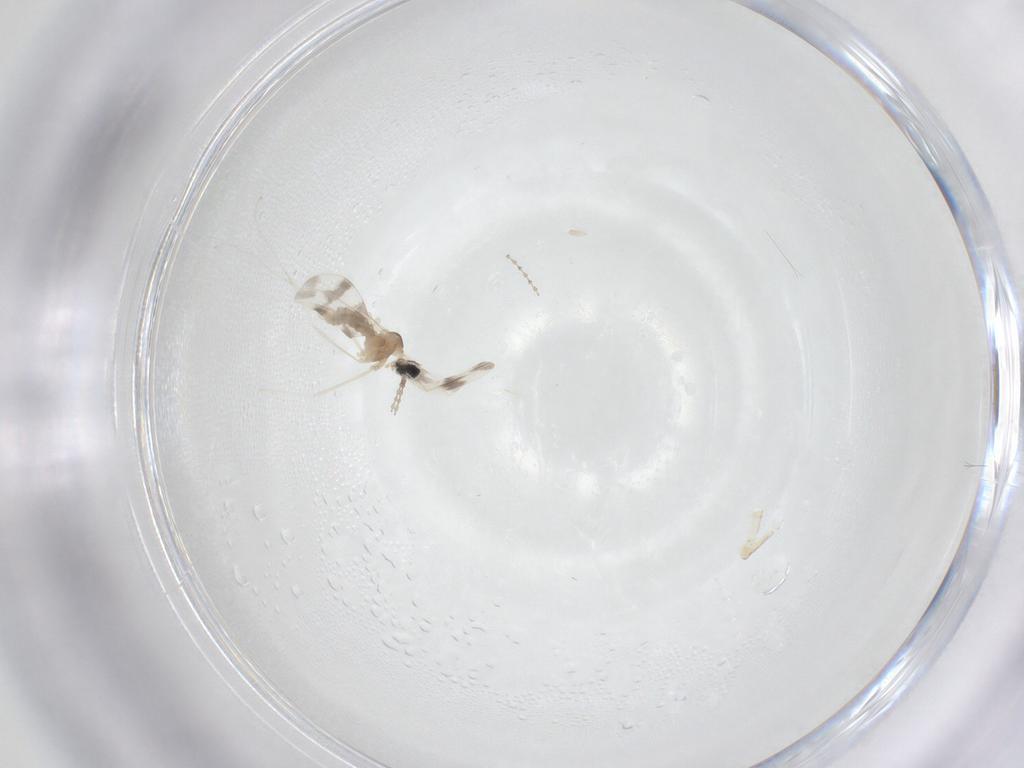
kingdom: Animalia
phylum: Arthropoda
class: Insecta
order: Diptera
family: Cecidomyiidae
